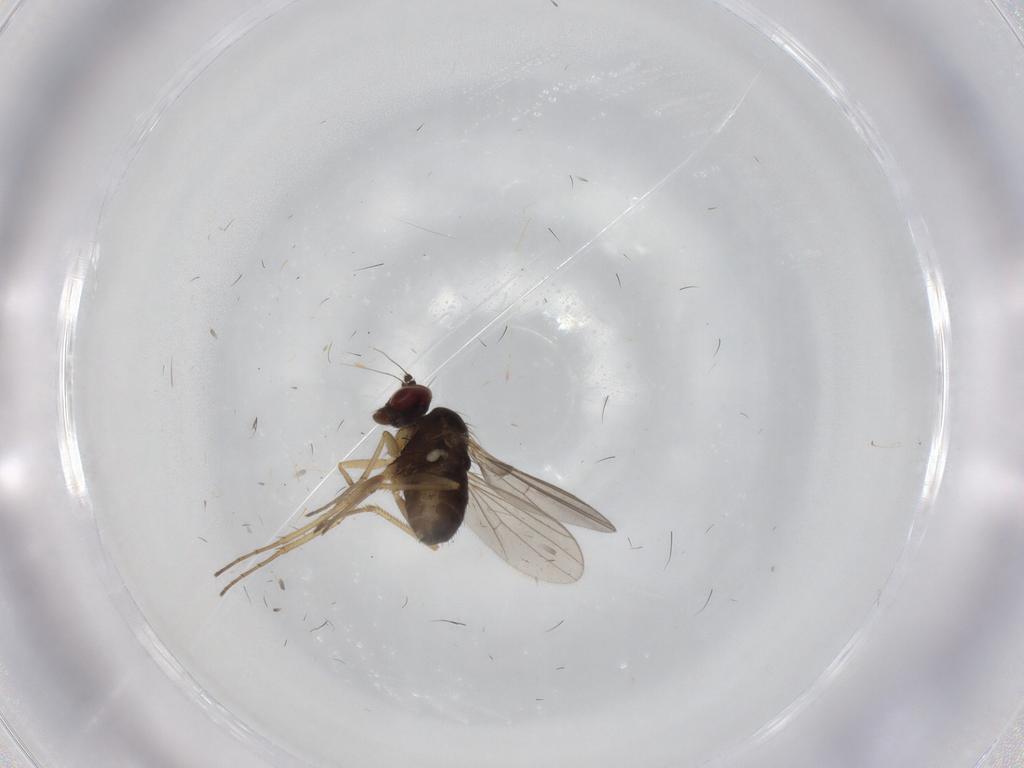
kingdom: Animalia
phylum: Arthropoda
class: Insecta
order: Diptera
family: Dolichopodidae
